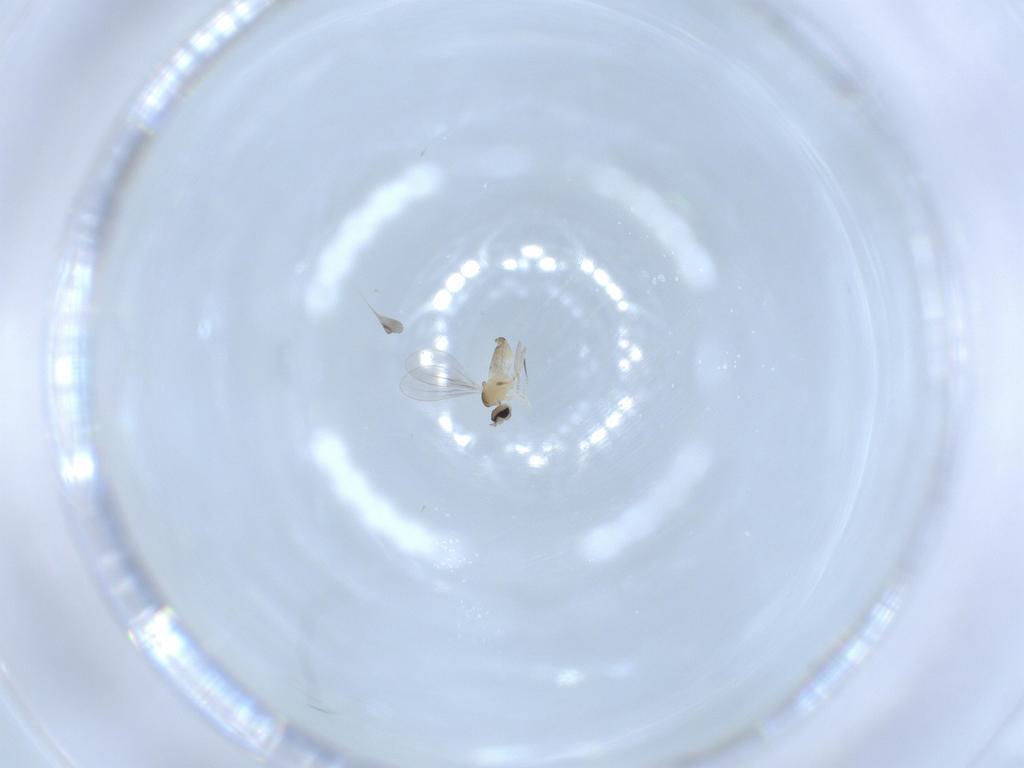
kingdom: Animalia
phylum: Arthropoda
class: Insecta
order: Diptera
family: Cecidomyiidae
